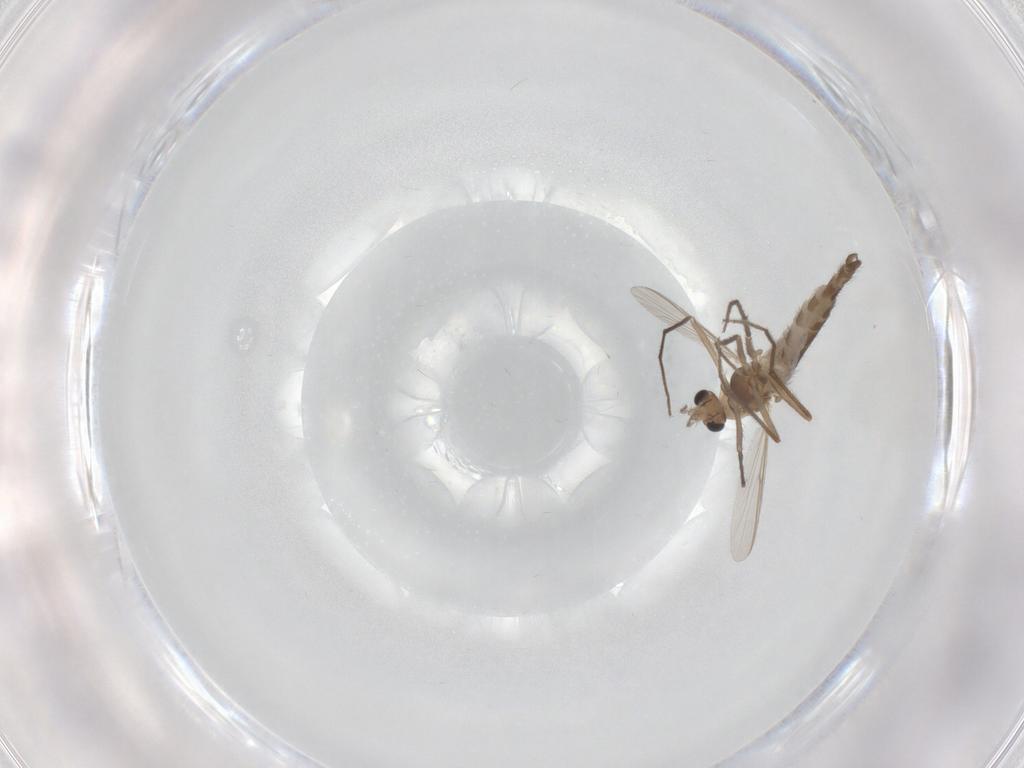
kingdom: Animalia
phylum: Arthropoda
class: Insecta
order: Diptera
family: Chironomidae
